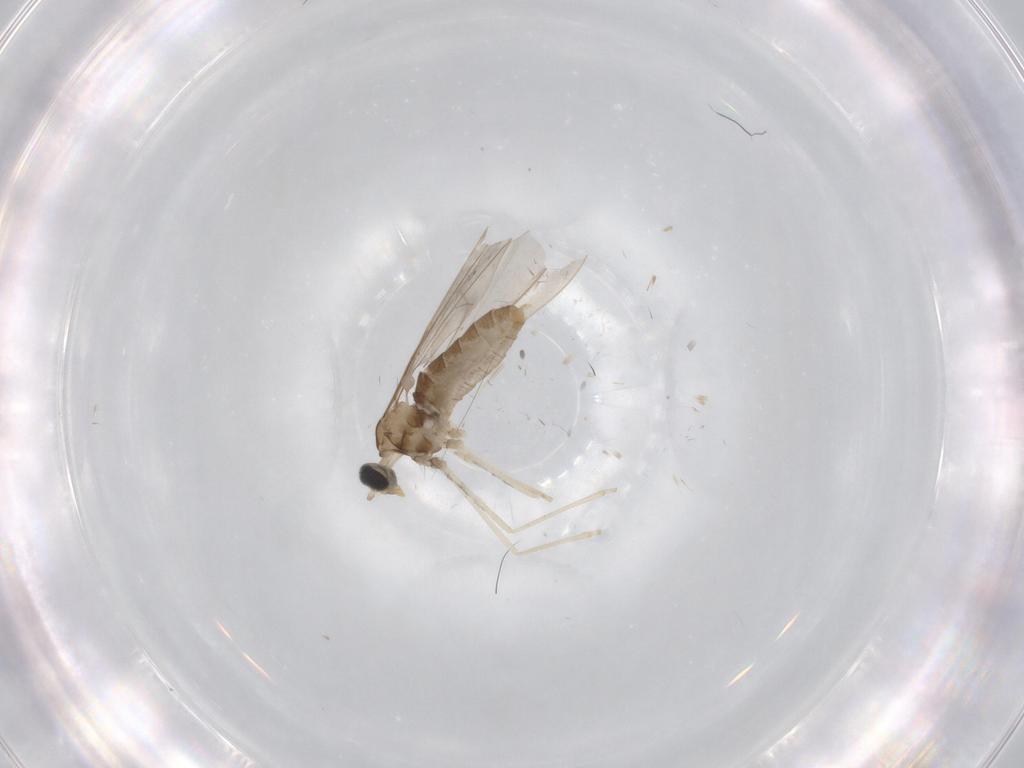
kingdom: Animalia
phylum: Arthropoda
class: Insecta
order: Diptera
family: Cecidomyiidae
